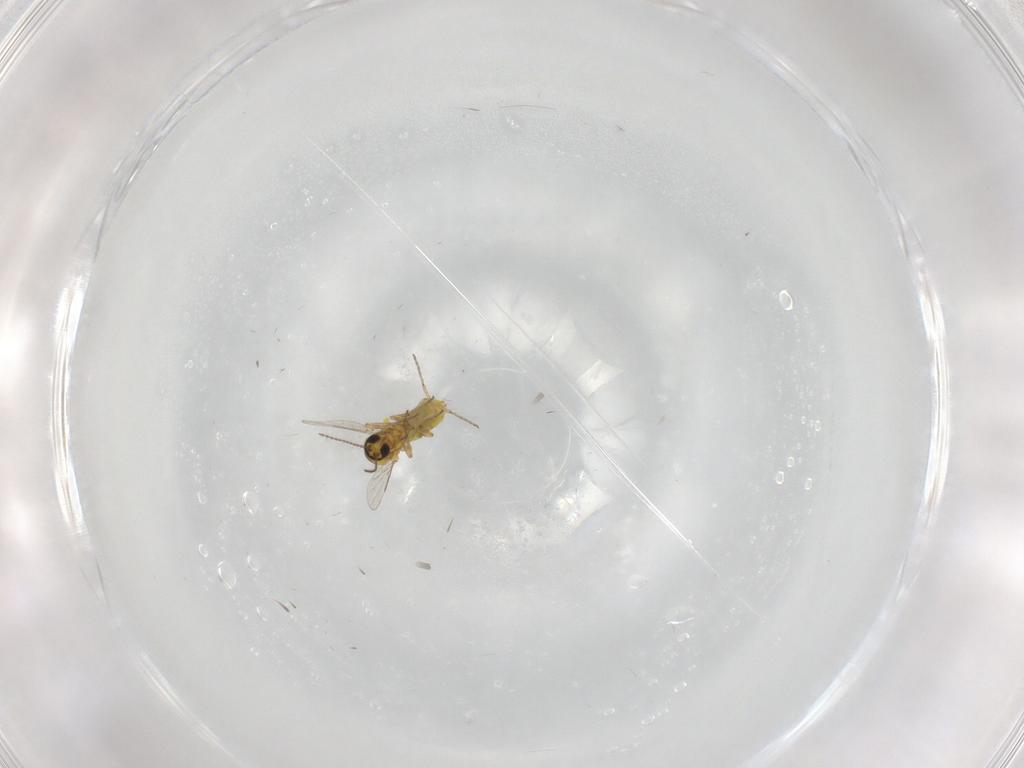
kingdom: Animalia
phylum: Arthropoda
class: Insecta
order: Diptera
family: Ceratopogonidae
